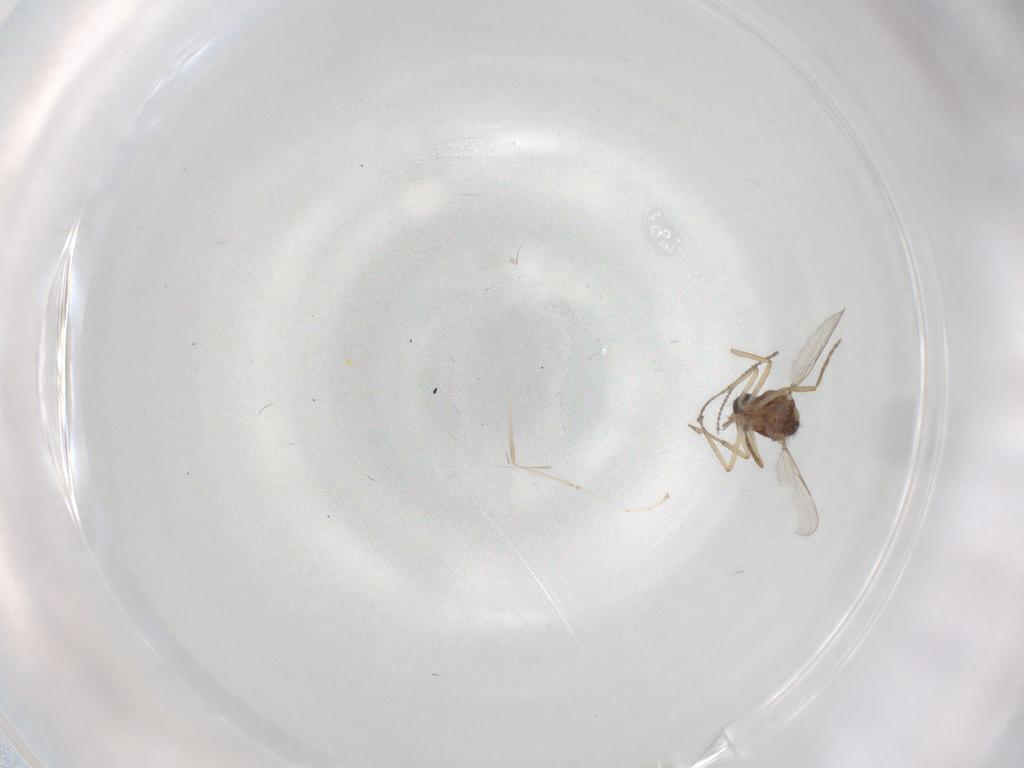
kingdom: Animalia
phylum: Arthropoda
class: Insecta
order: Diptera
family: Cecidomyiidae
